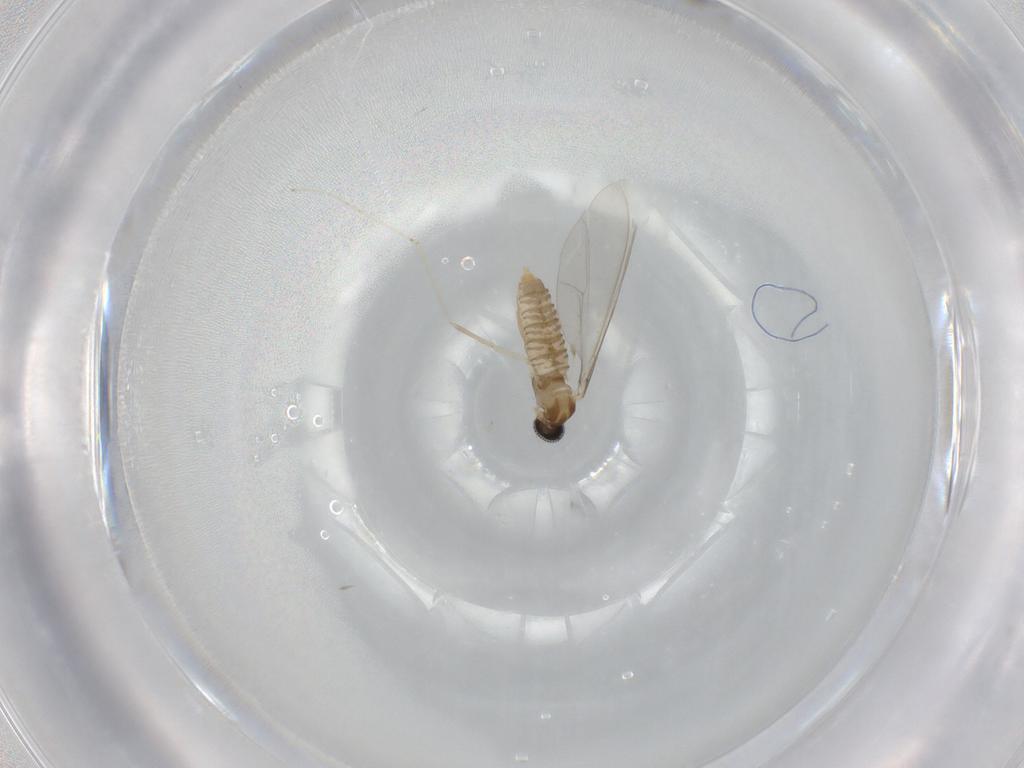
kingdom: Animalia
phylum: Arthropoda
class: Insecta
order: Diptera
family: Cecidomyiidae
